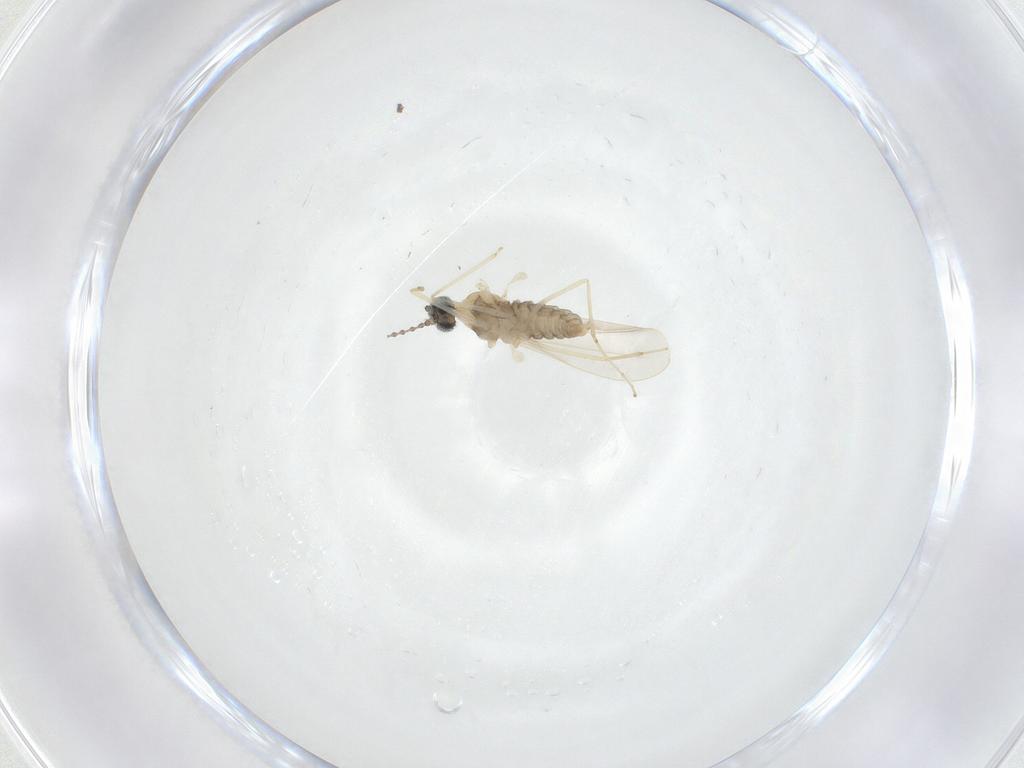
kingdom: Animalia
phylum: Arthropoda
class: Insecta
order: Diptera
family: Cecidomyiidae
